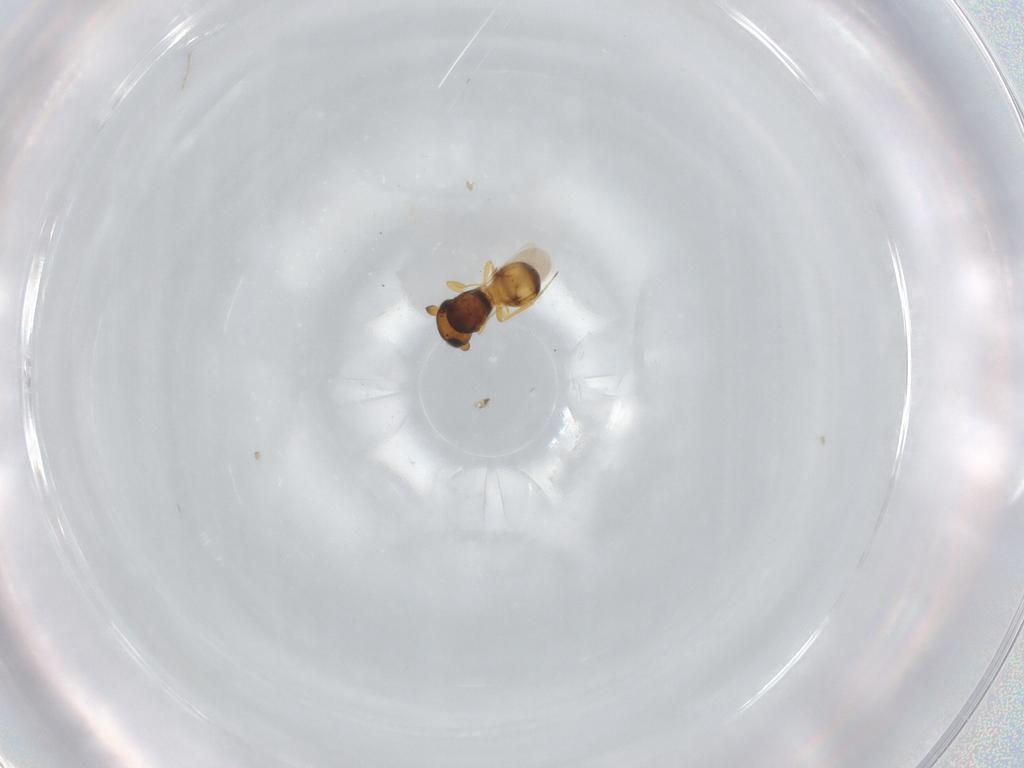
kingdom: Animalia
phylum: Arthropoda
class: Insecta
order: Hymenoptera
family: Scelionidae
